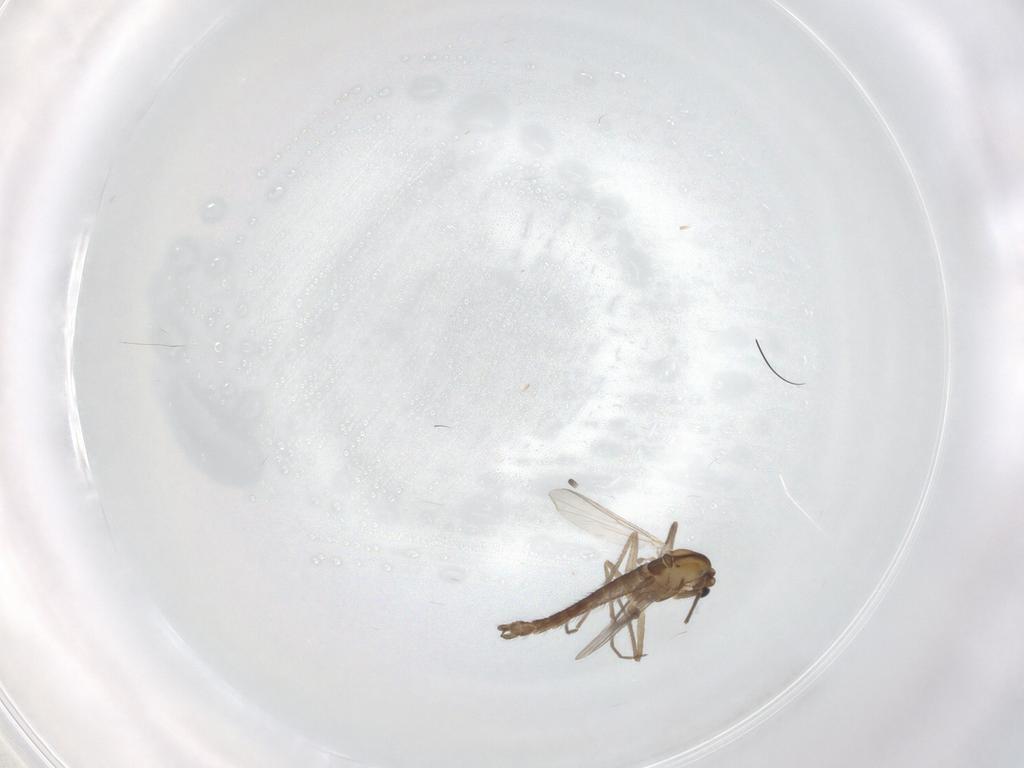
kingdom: Animalia
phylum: Arthropoda
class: Insecta
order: Diptera
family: Chironomidae
